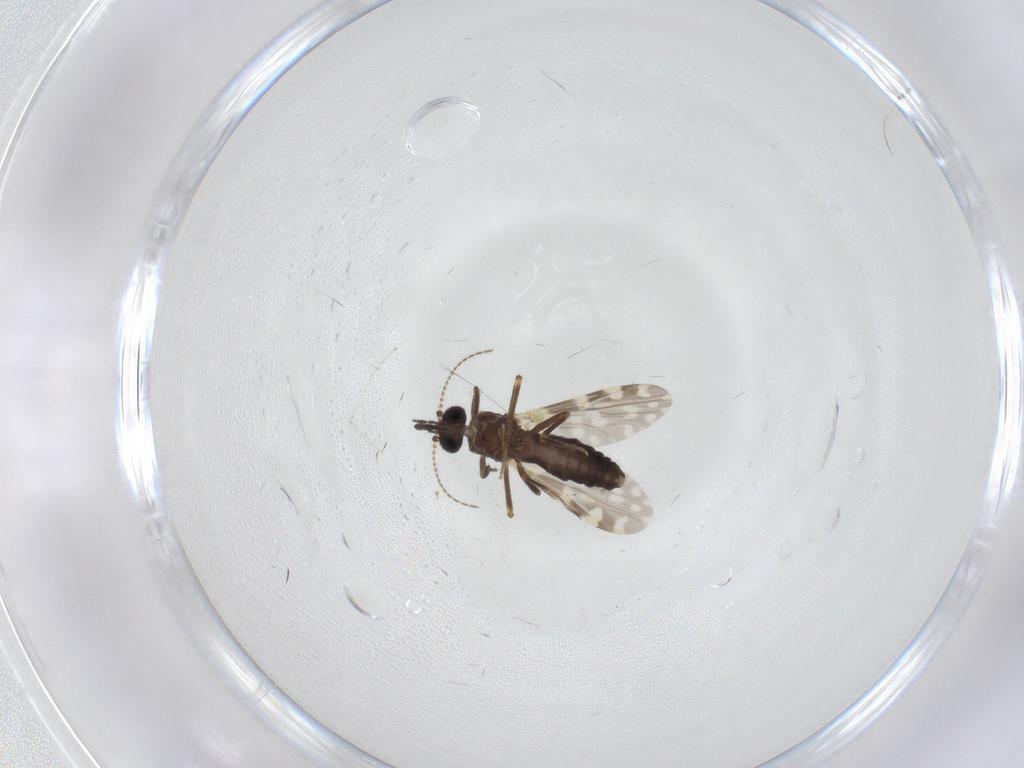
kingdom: Animalia
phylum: Arthropoda
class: Insecta
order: Diptera
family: Ceratopogonidae
